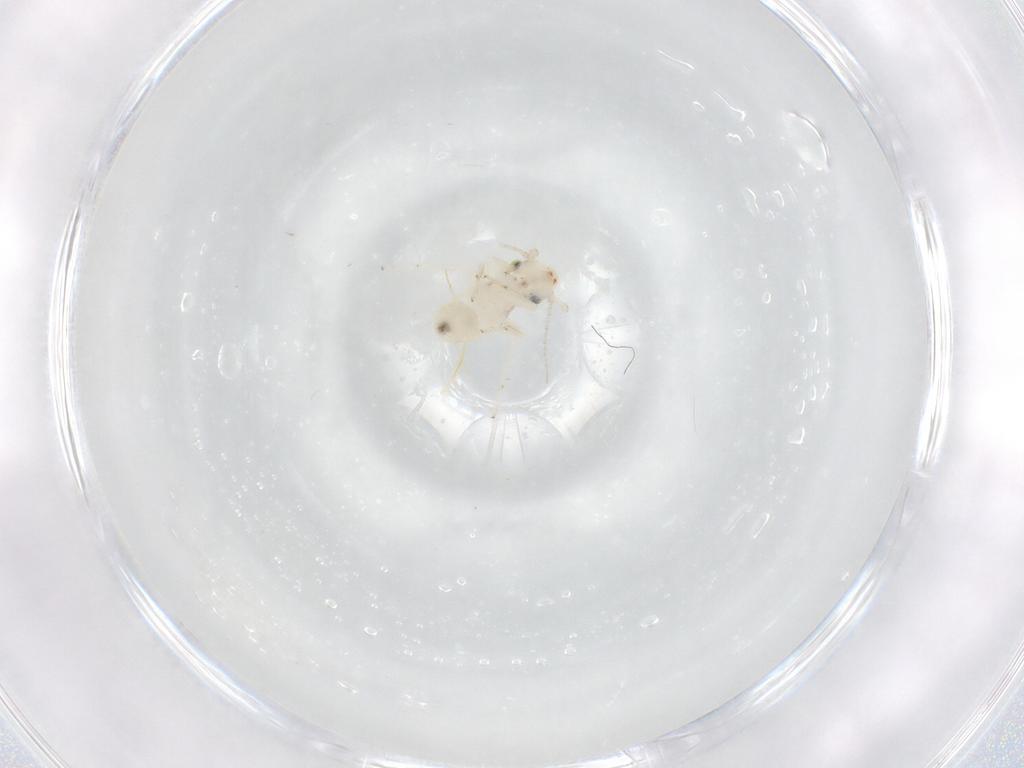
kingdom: Animalia
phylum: Arthropoda
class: Insecta
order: Psocodea
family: Lepidopsocidae
